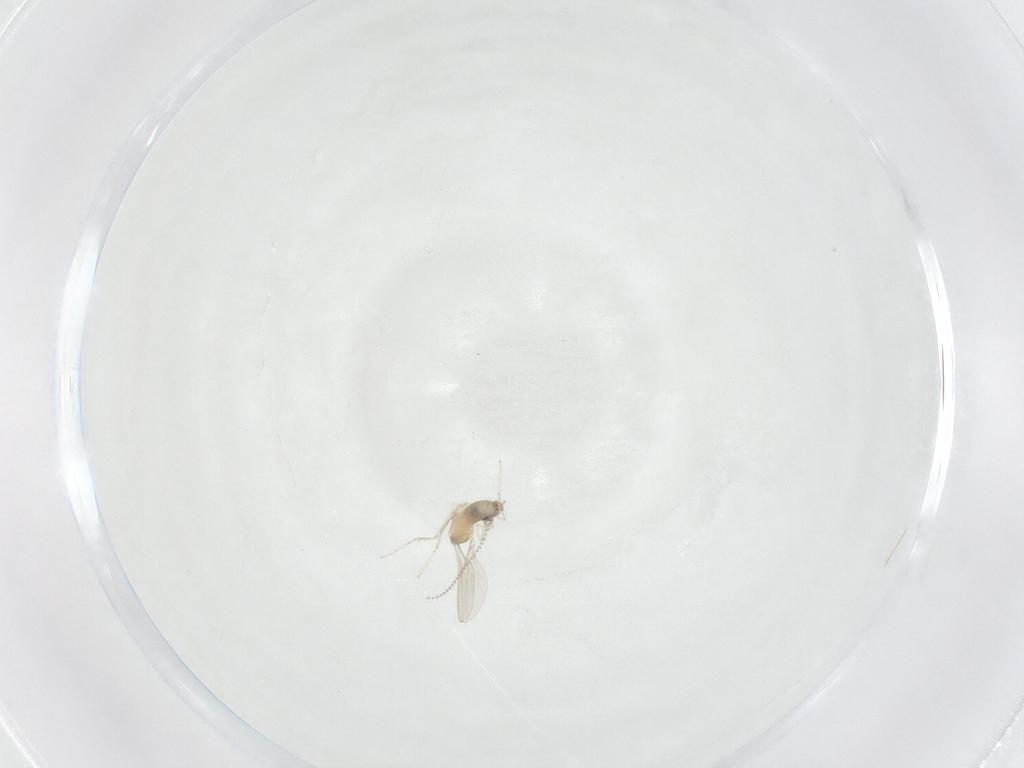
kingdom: Animalia
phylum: Arthropoda
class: Insecta
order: Diptera
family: Cecidomyiidae
